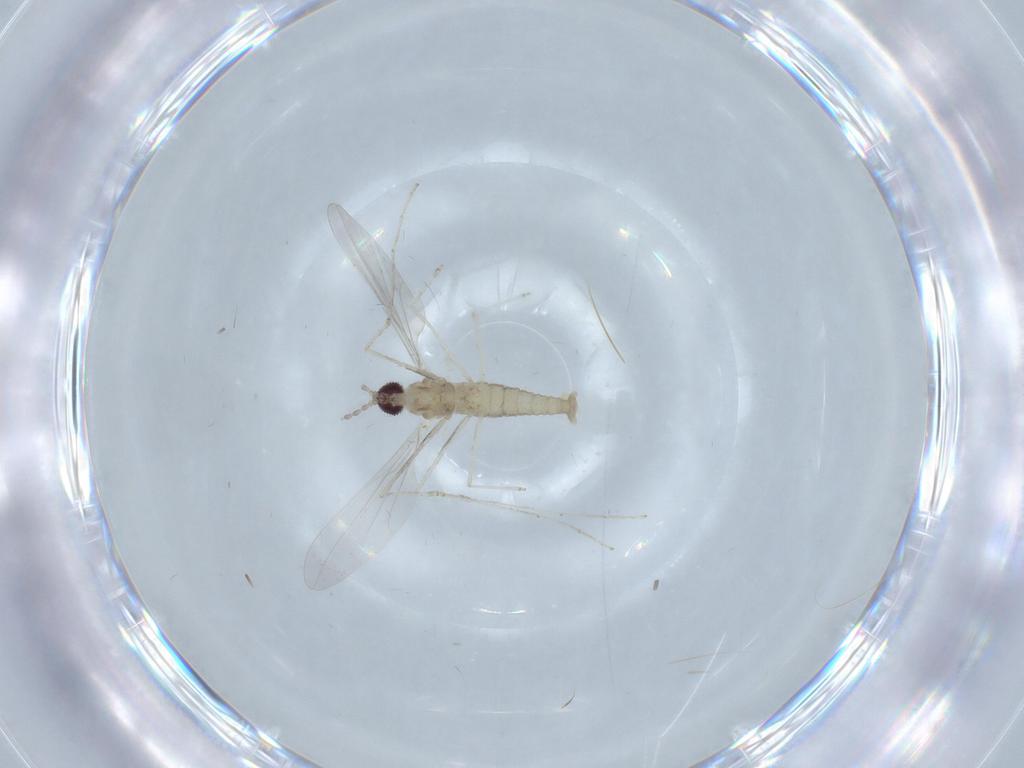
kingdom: Animalia
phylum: Arthropoda
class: Insecta
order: Diptera
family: Cecidomyiidae
